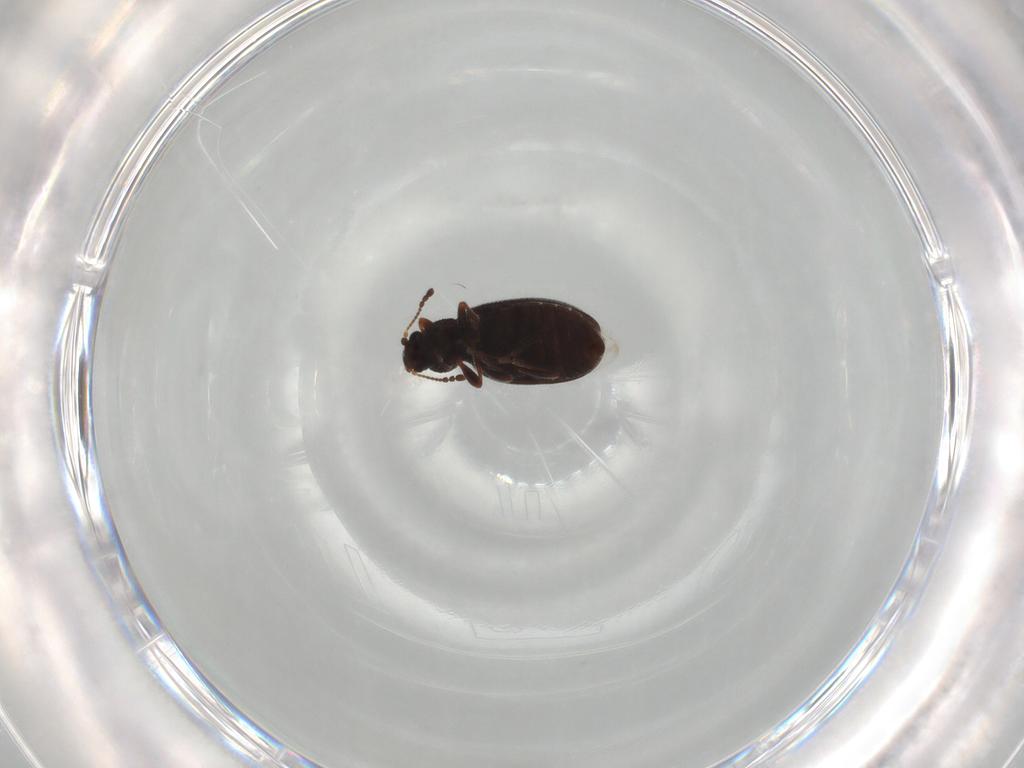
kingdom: Animalia
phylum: Arthropoda
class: Insecta
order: Coleoptera
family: Latridiidae
